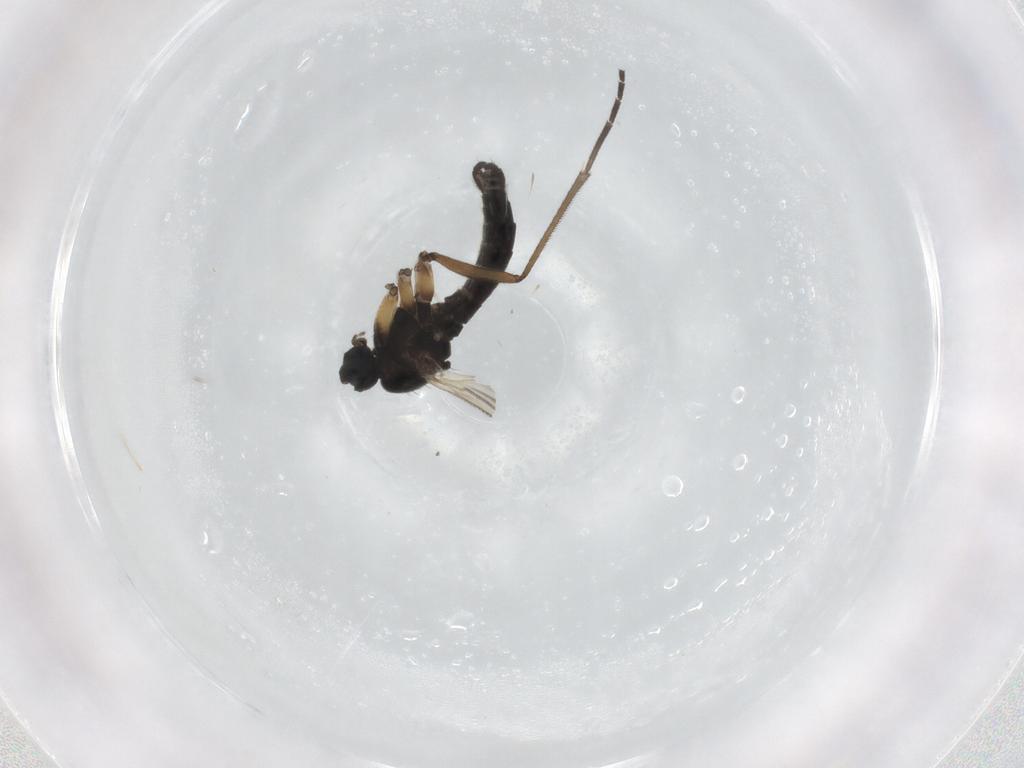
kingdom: Animalia
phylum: Arthropoda
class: Insecta
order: Diptera
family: Sciaridae
